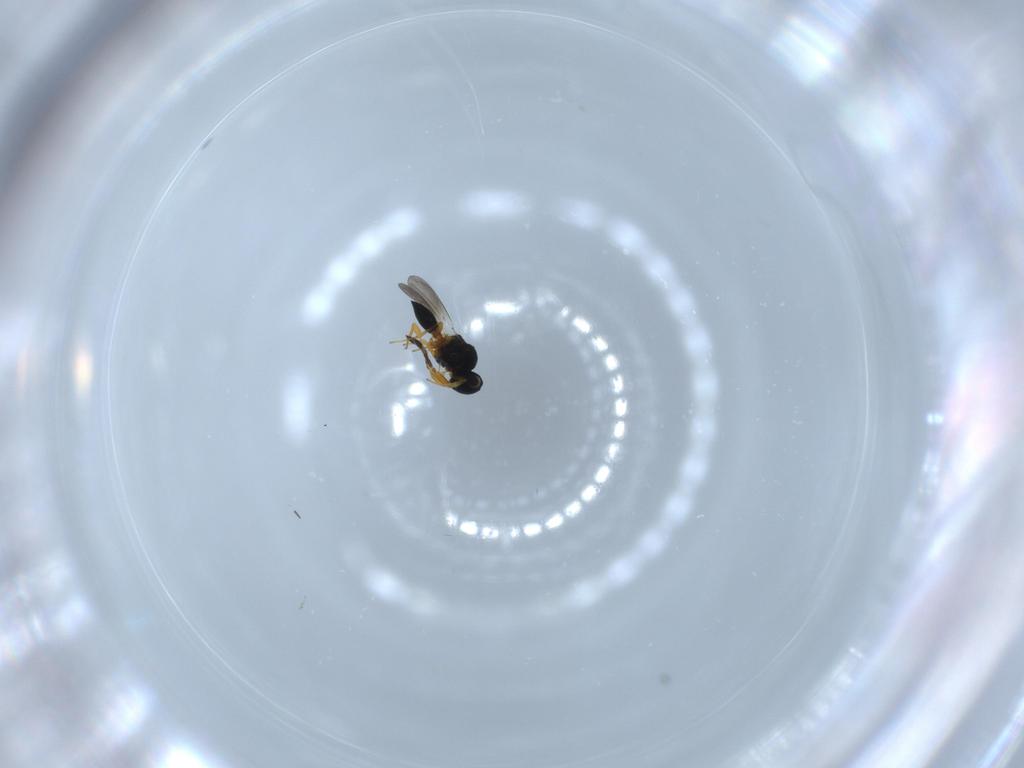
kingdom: Animalia
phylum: Arthropoda
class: Insecta
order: Hymenoptera
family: Platygastridae
